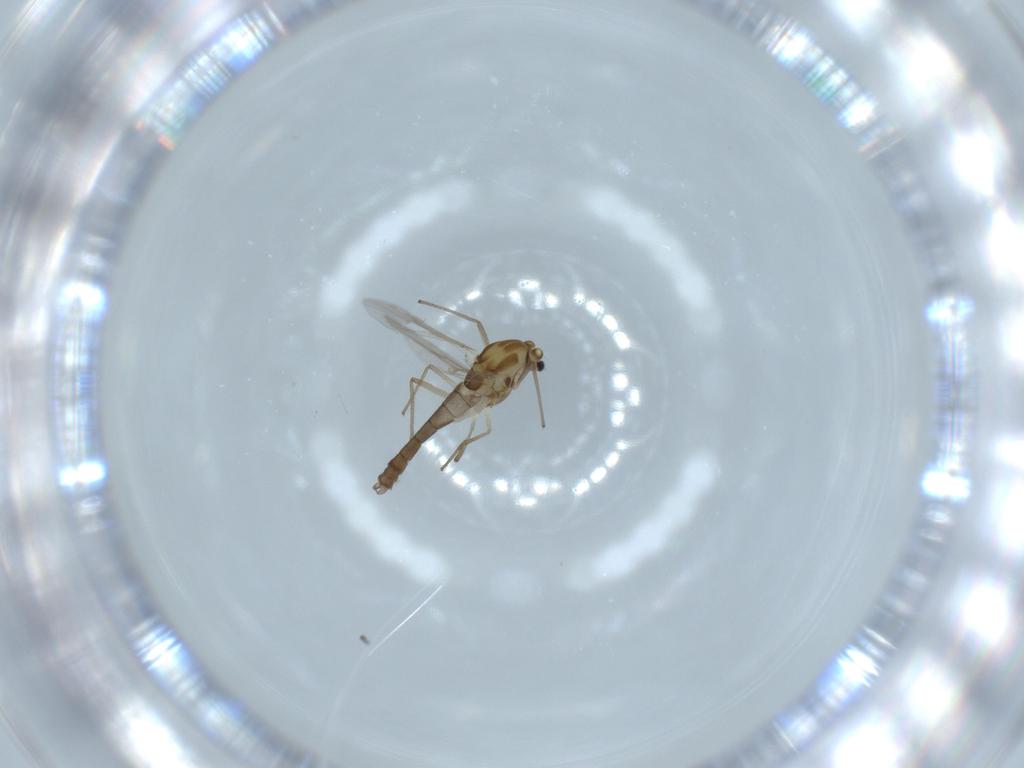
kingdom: Animalia
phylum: Arthropoda
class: Insecta
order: Diptera
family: Chironomidae
